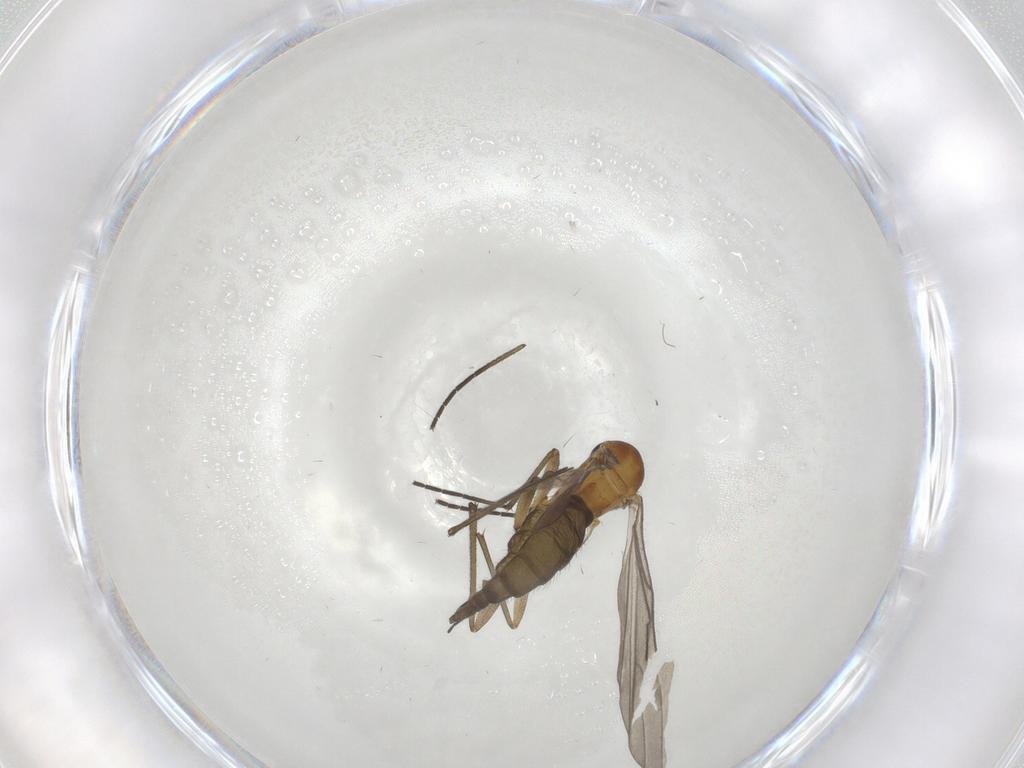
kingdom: Animalia
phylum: Arthropoda
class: Insecta
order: Diptera
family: Sciaridae
